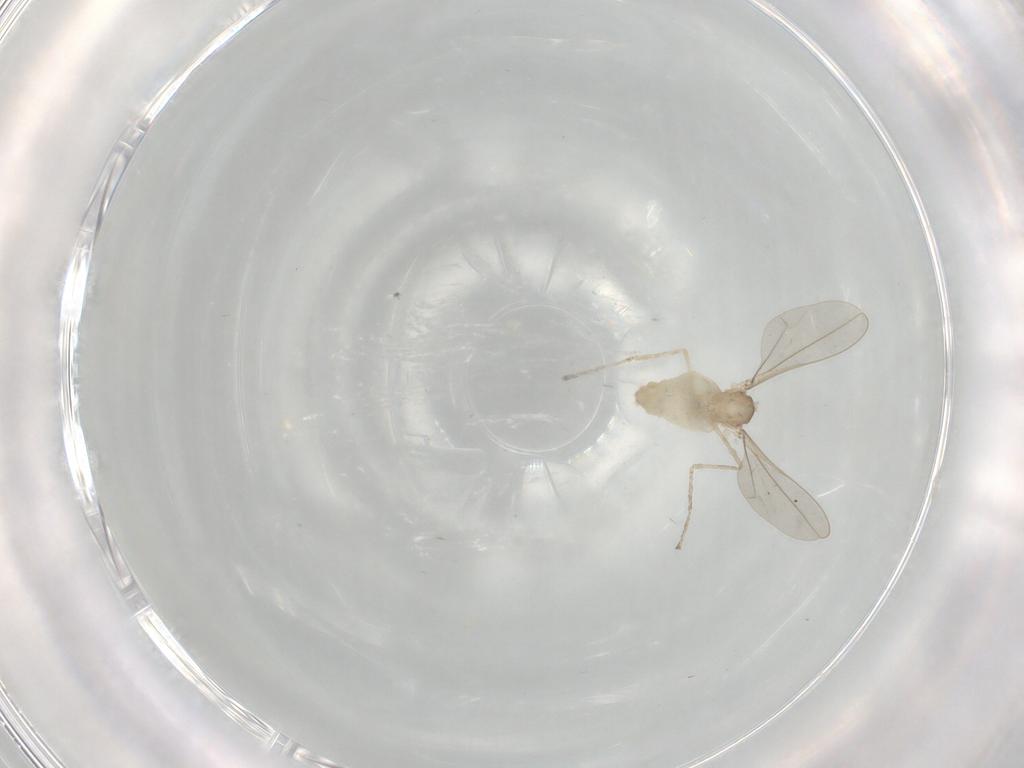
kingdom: Animalia
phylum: Arthropoda
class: Insecta
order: Diptera
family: Cecidomyiidae
